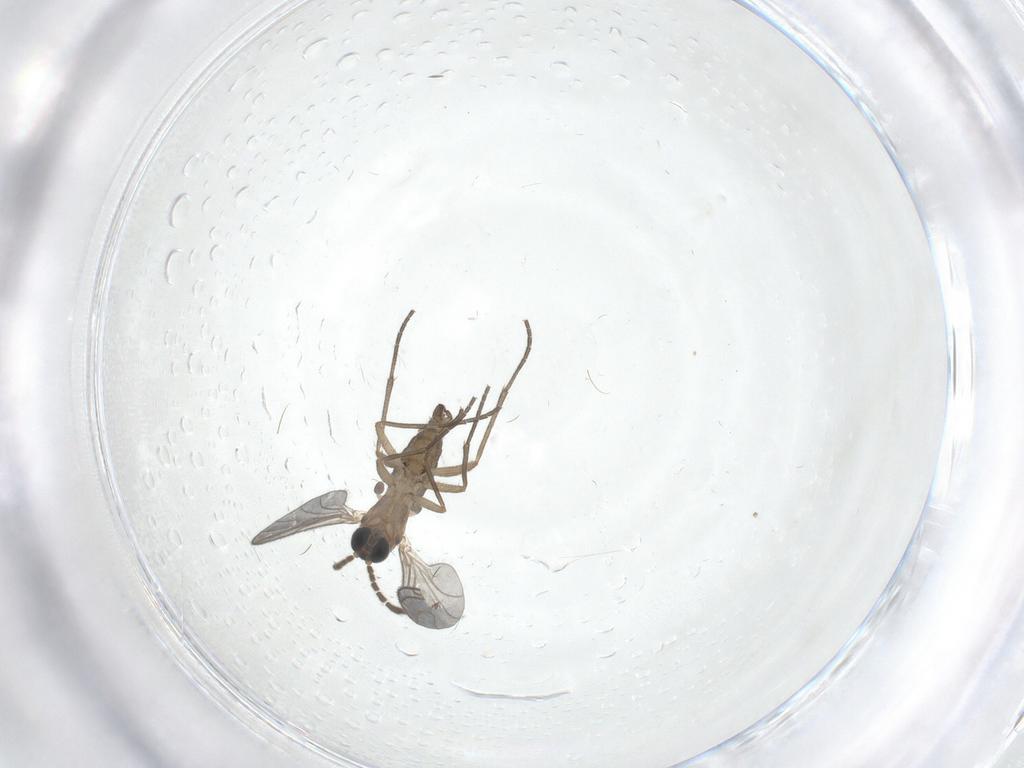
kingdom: Animalia
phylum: Arthropoda
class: Insecta
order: Diptera
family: Sciaridae
